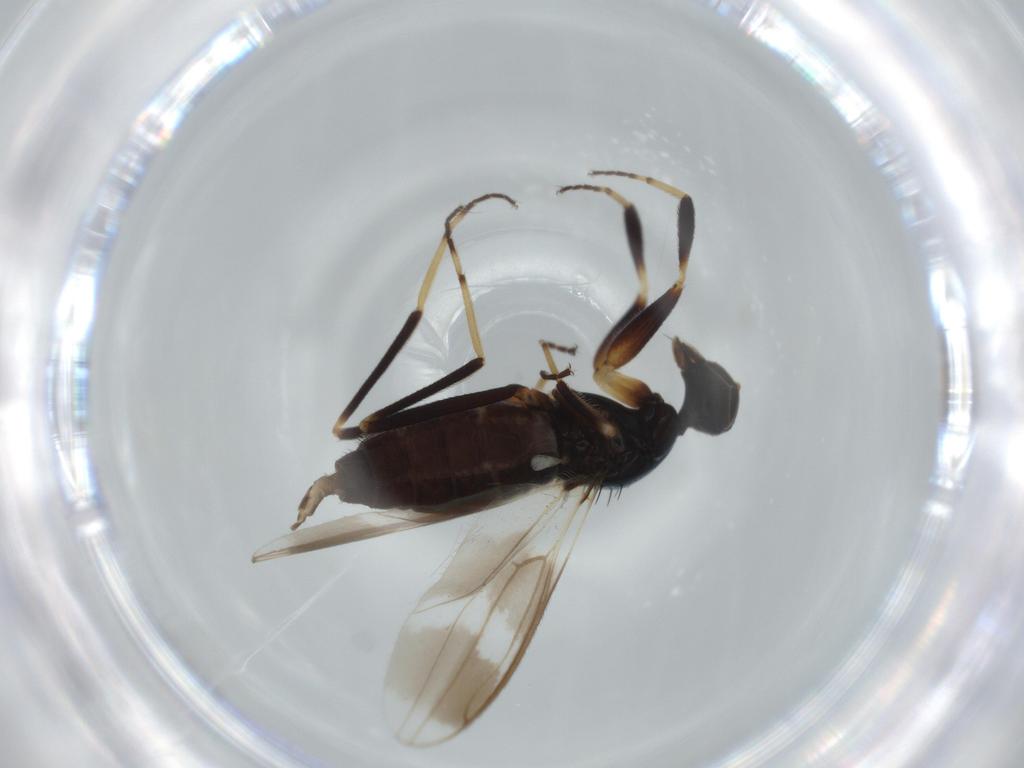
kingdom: Animalia
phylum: Arthropoda
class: Insecta
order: Diptera
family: Hybotidae
